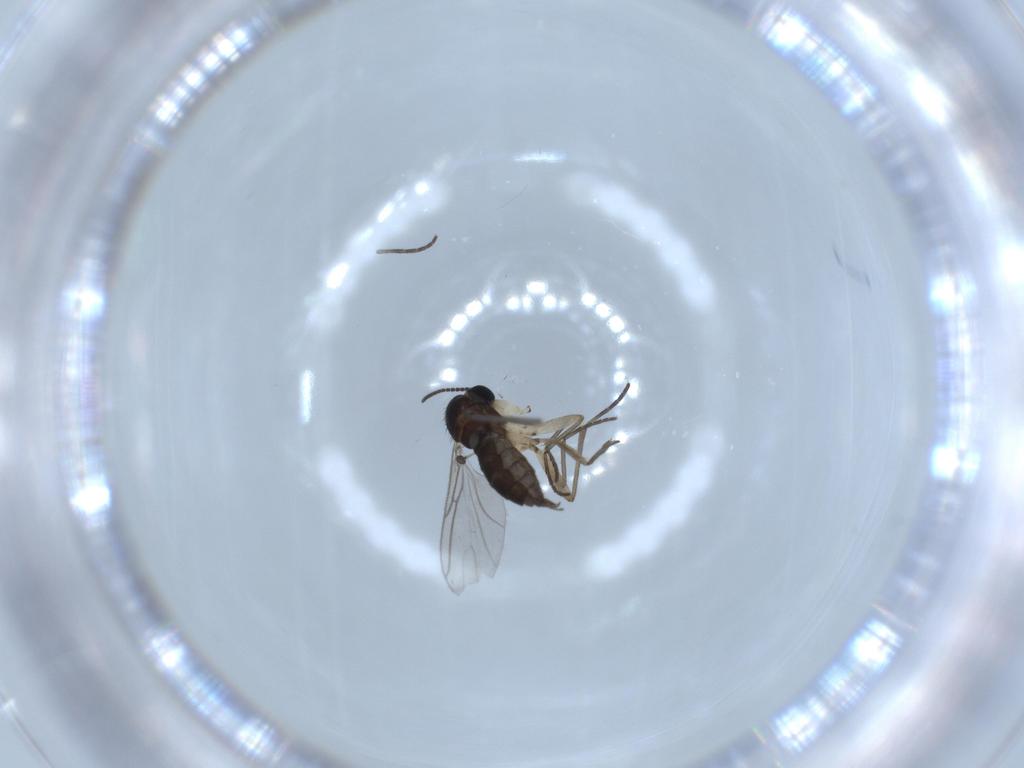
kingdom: Animalia
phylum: Arthropoda
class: Insecta
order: Diptera
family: Sciaridae
